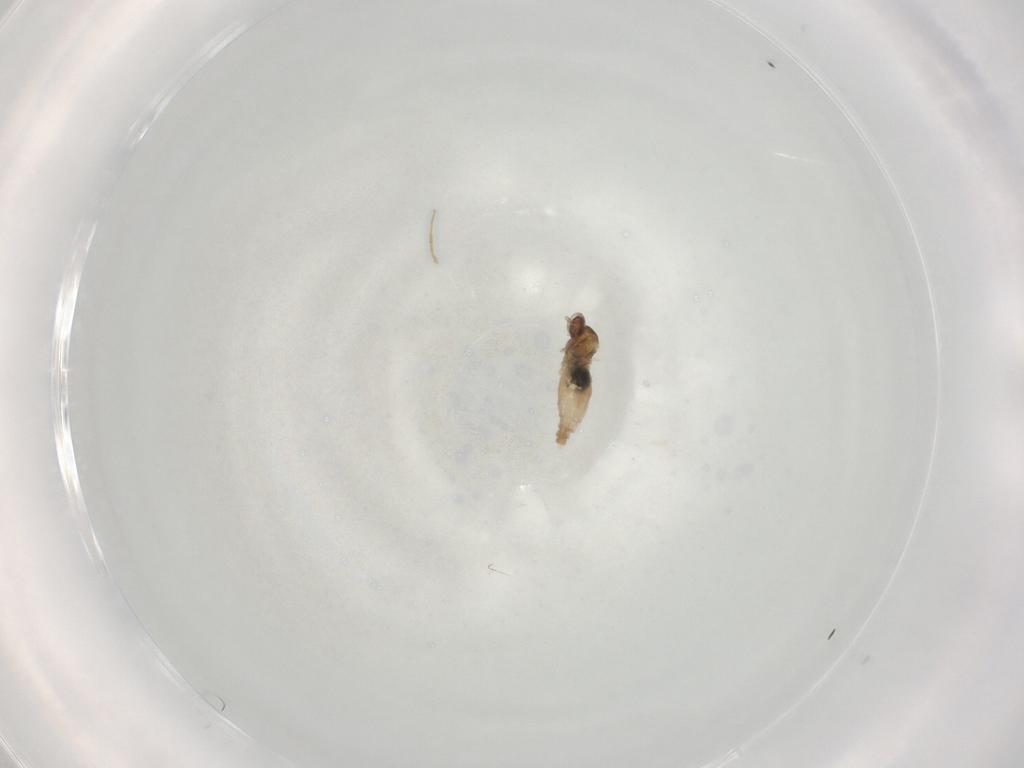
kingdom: Animalia
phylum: Arthropoda
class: Insecta
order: Diptera
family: Cecidomyiidae
